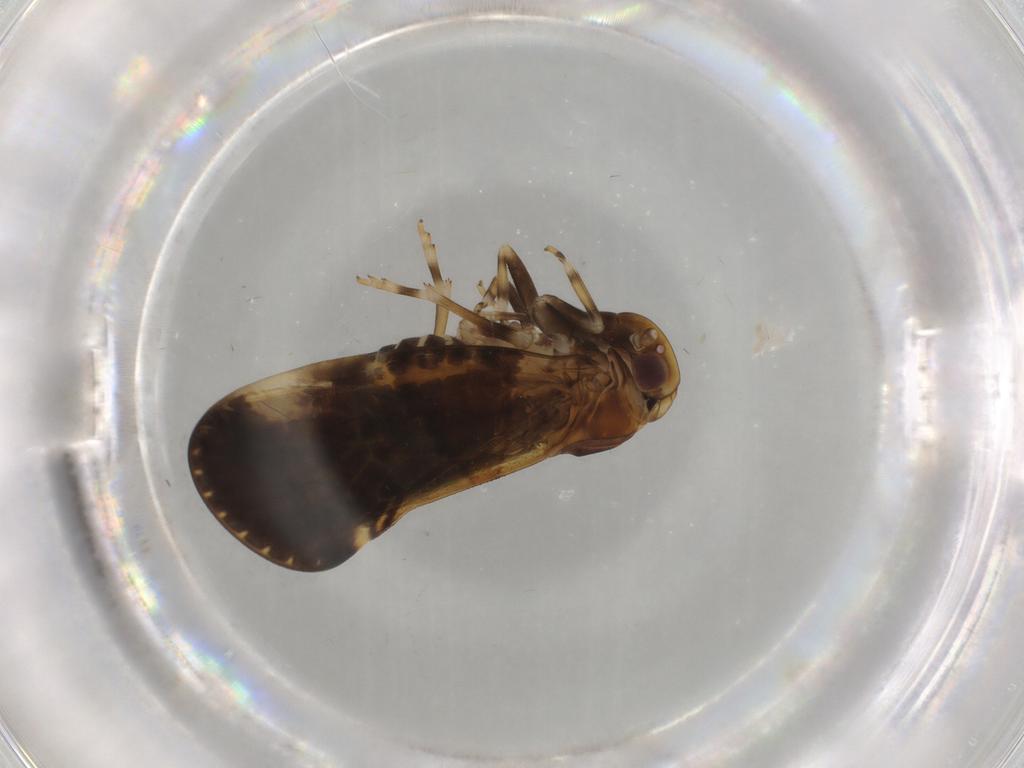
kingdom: Animalia
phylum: Arthropoda
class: Insecta
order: Hemiptera
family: Cixiidae
